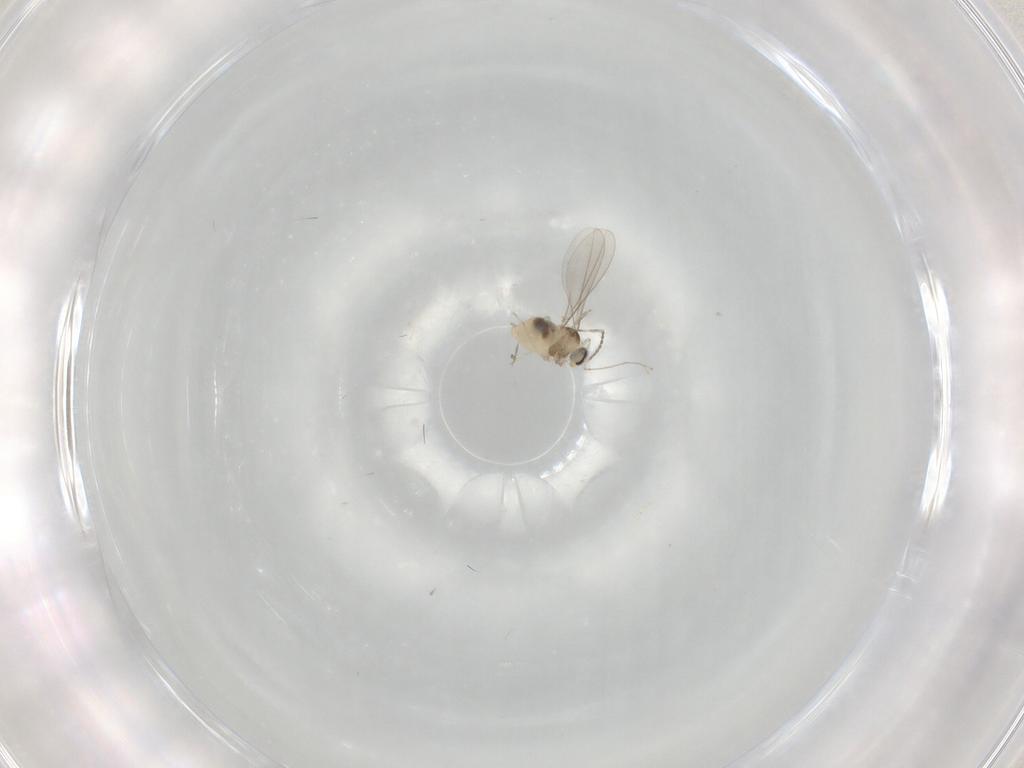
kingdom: Animalia
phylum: Arthropoda
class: Insecta
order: Diptera
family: Cecidomyiidae
